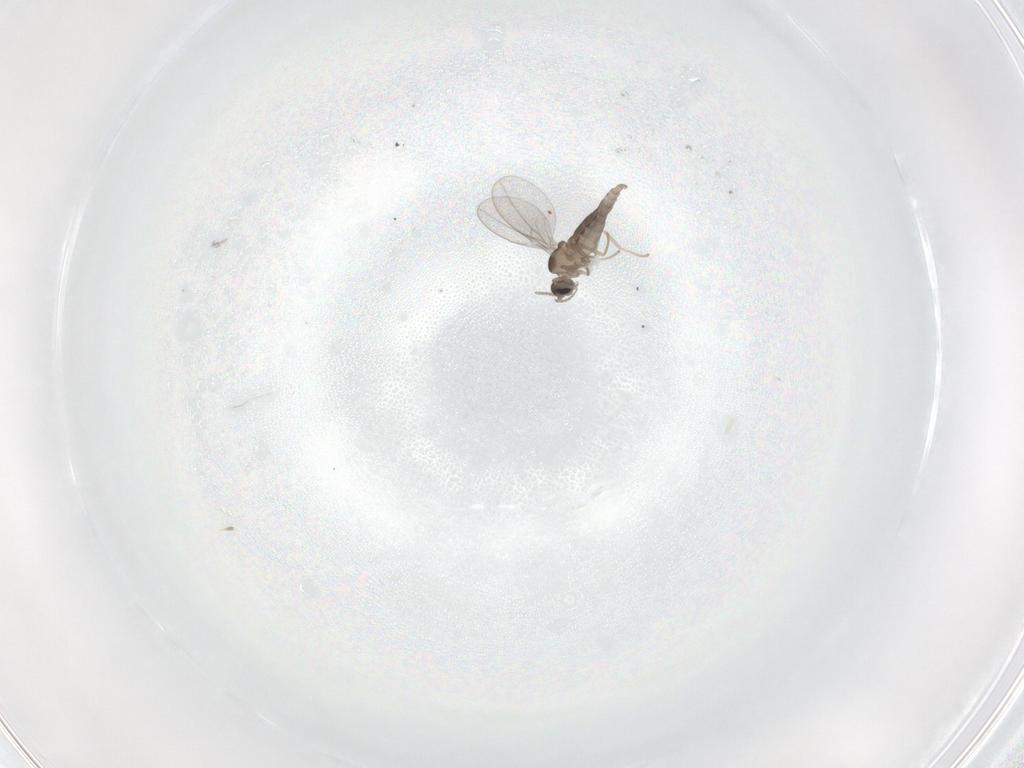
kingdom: Animalia
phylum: Arthropoda
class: Insecta
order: Diptera
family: Cecidomyiidae
